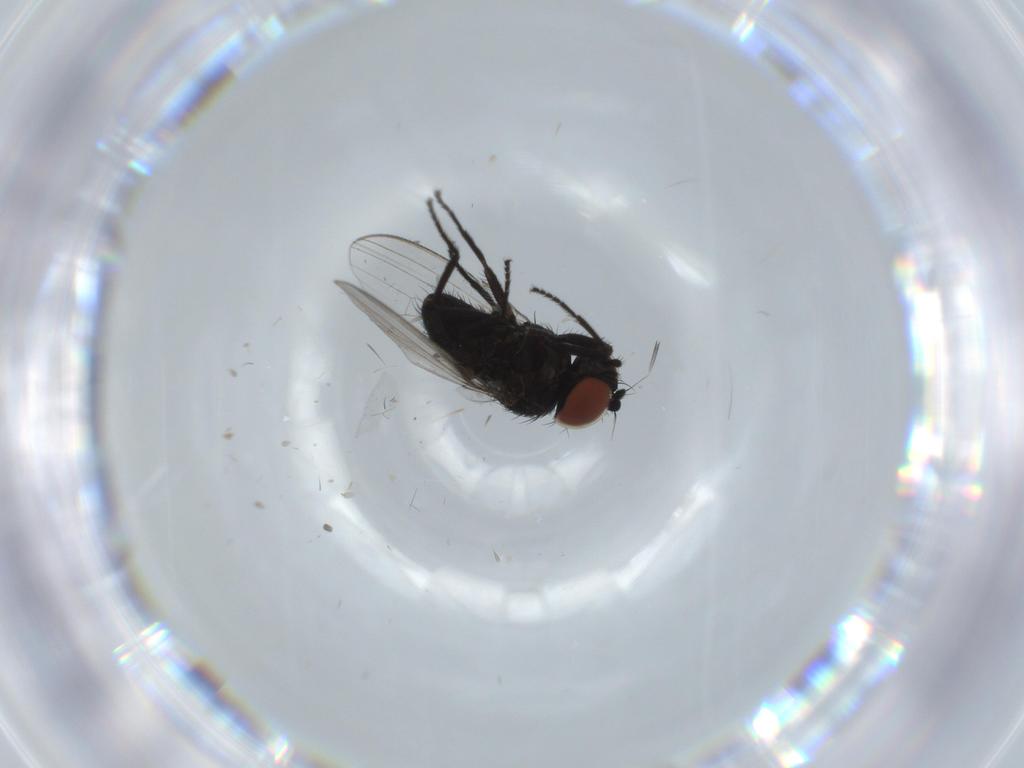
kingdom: Animalia
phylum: Arthropoda
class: Insecta
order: Diptera
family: Milichiidae
